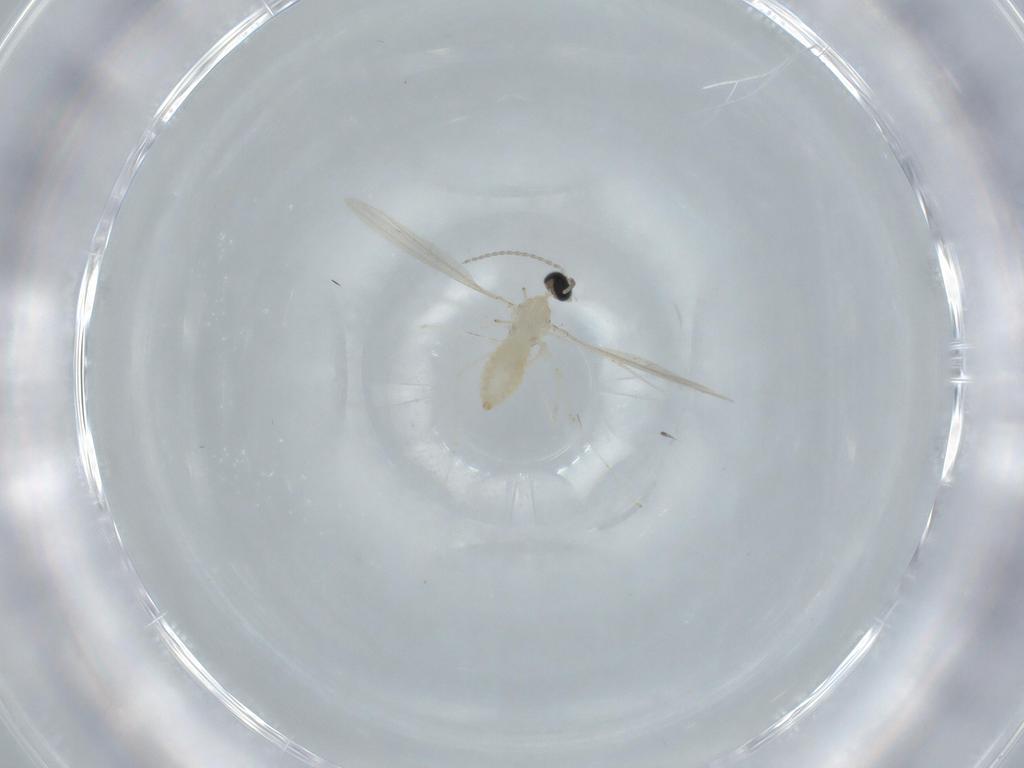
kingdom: Animalia
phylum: Arthropoda
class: Insecta
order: Diptera
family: Cecidomyiidae
